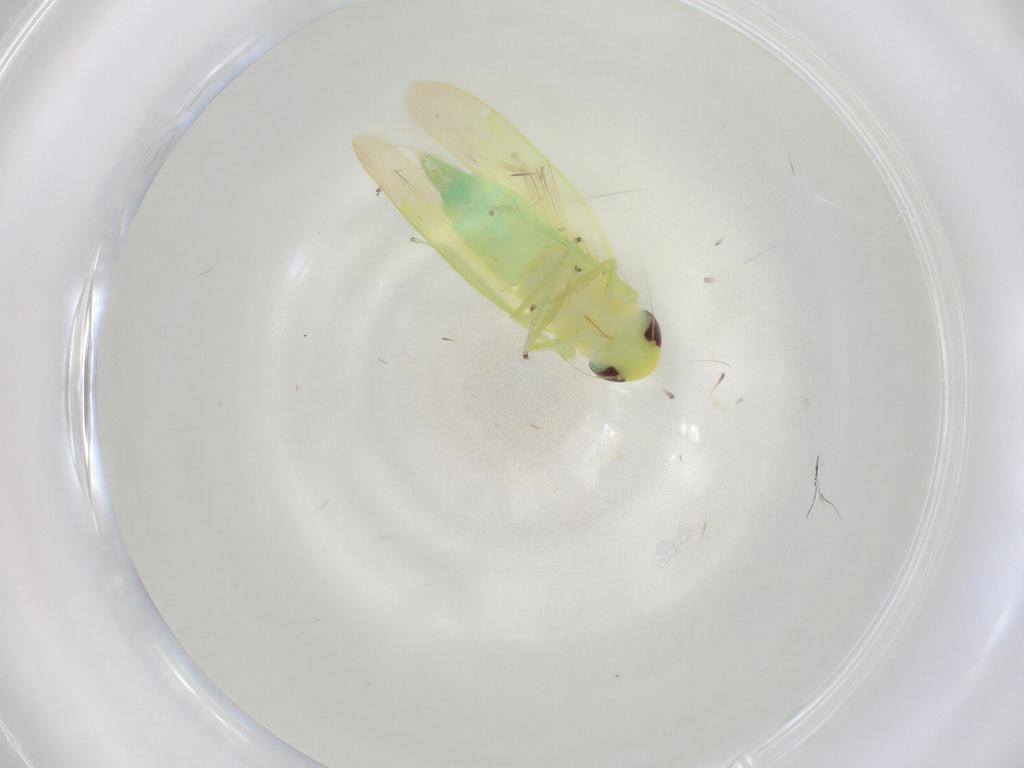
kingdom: Animalia
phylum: Arthropoda
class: Insecta
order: Hemiptera
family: Cicadellidae
